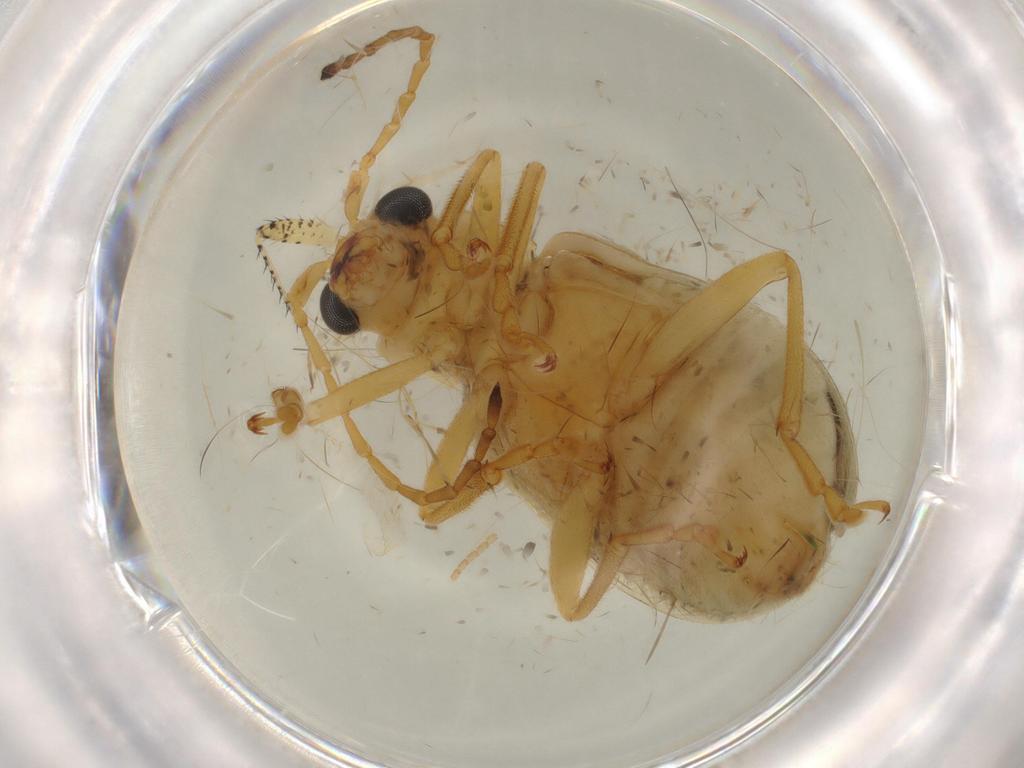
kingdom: Animalia
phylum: Arthropoda
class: Insecta
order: Coleoptera
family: Chrysomelidae
